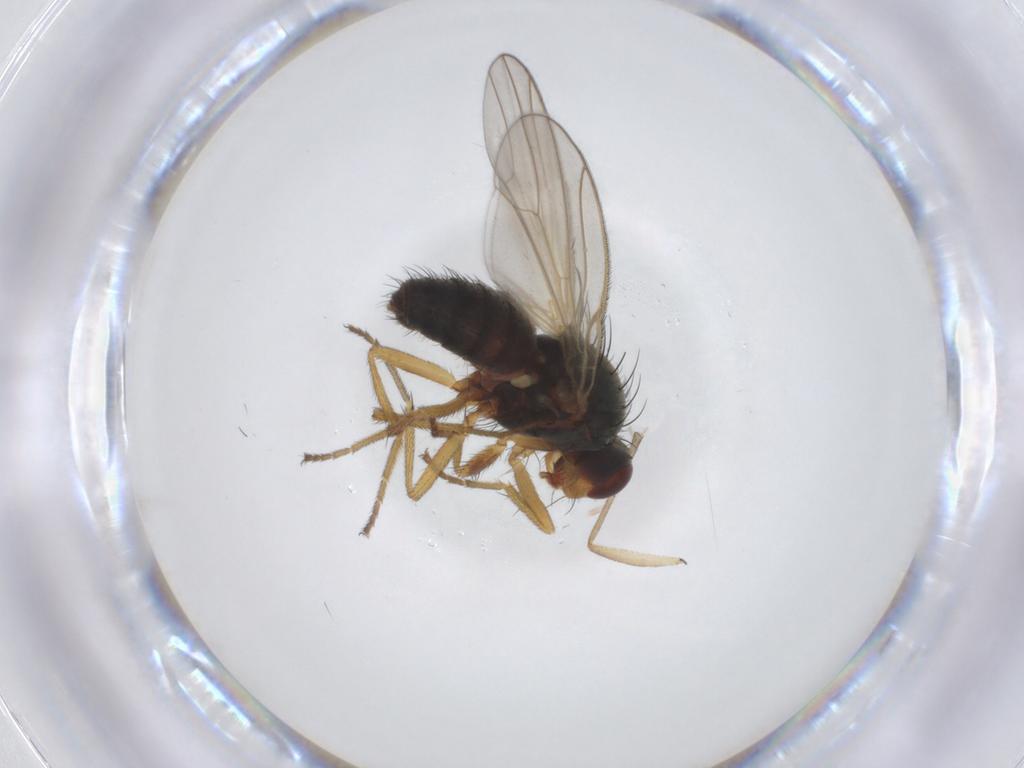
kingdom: Animalia
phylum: Arthropoda
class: Insecta
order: Diptera
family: Sciaridae
